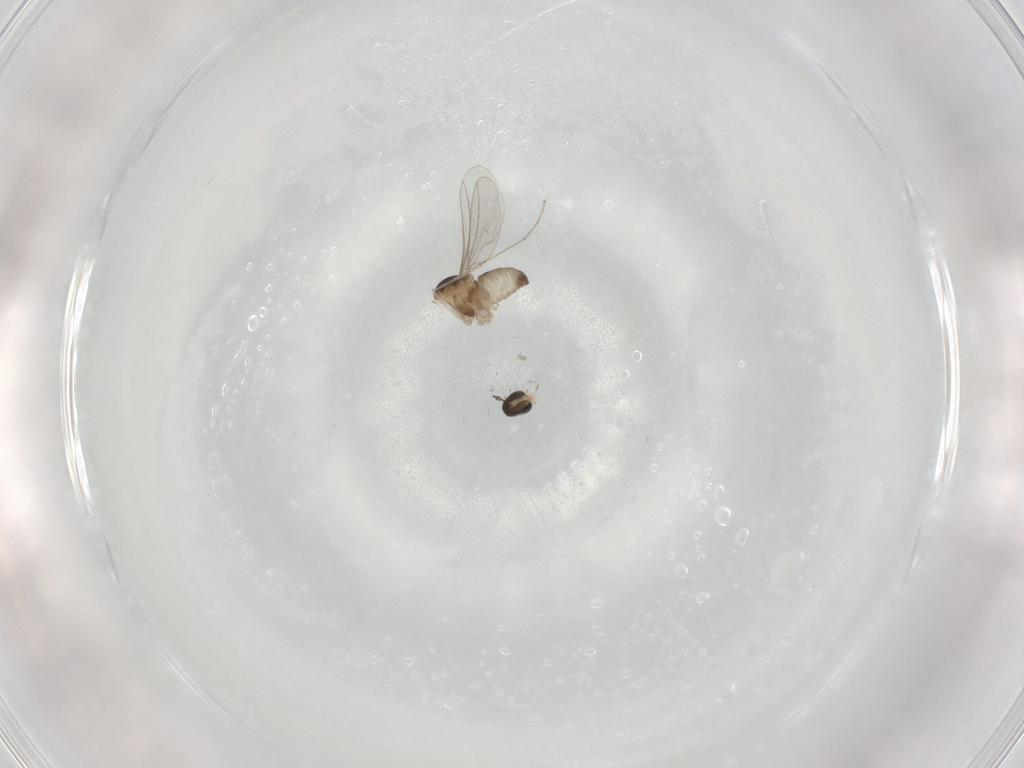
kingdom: Animalia
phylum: Arthropoda
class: Insecta
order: Diptera
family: Cecidomyiidae
